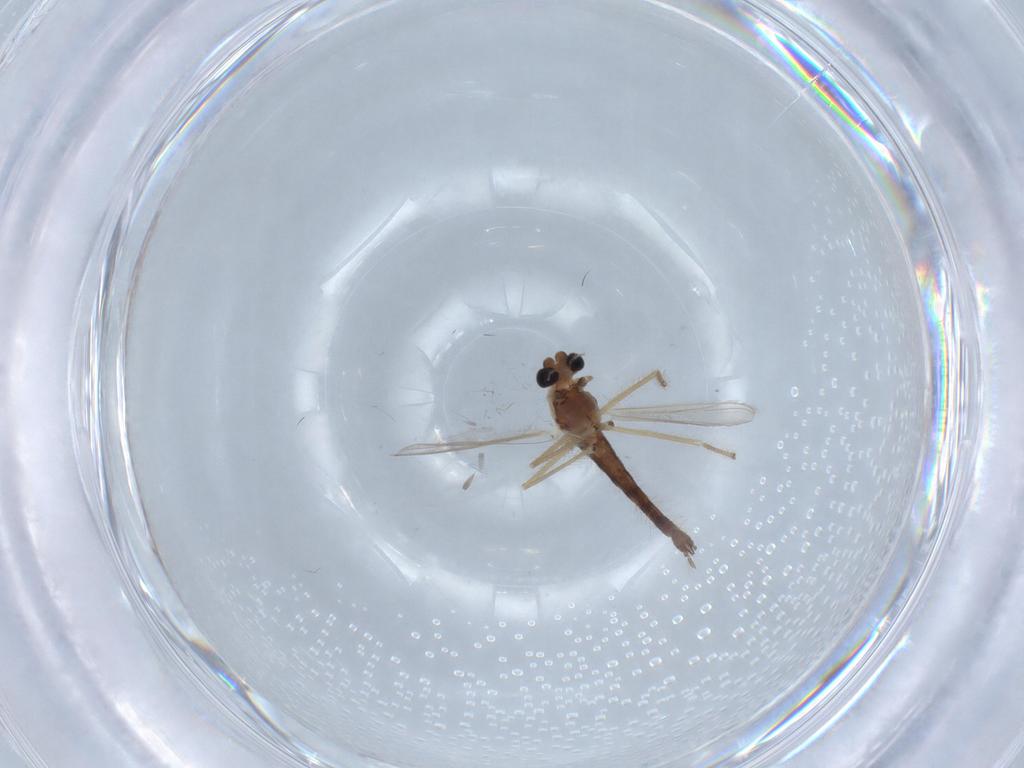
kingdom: Animalia
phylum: Arthropoda
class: Insecta
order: Diptera
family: Chironomidae
